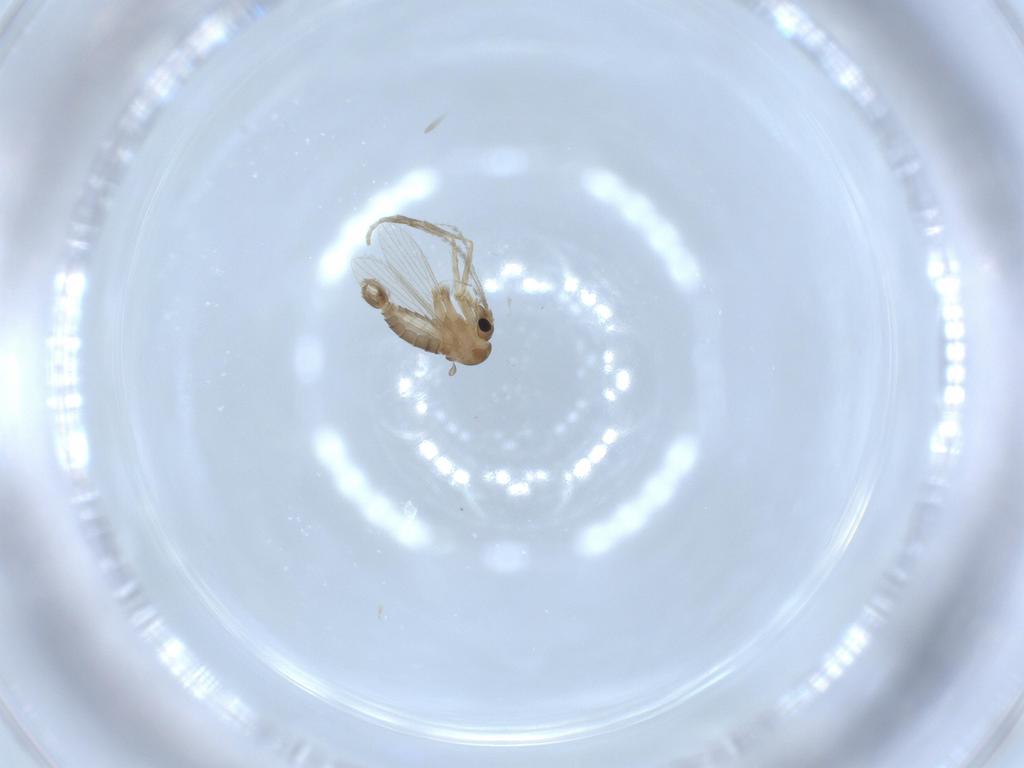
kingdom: Animalia
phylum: Arthropoda
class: Insecta
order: Diptera
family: Psychodidae
